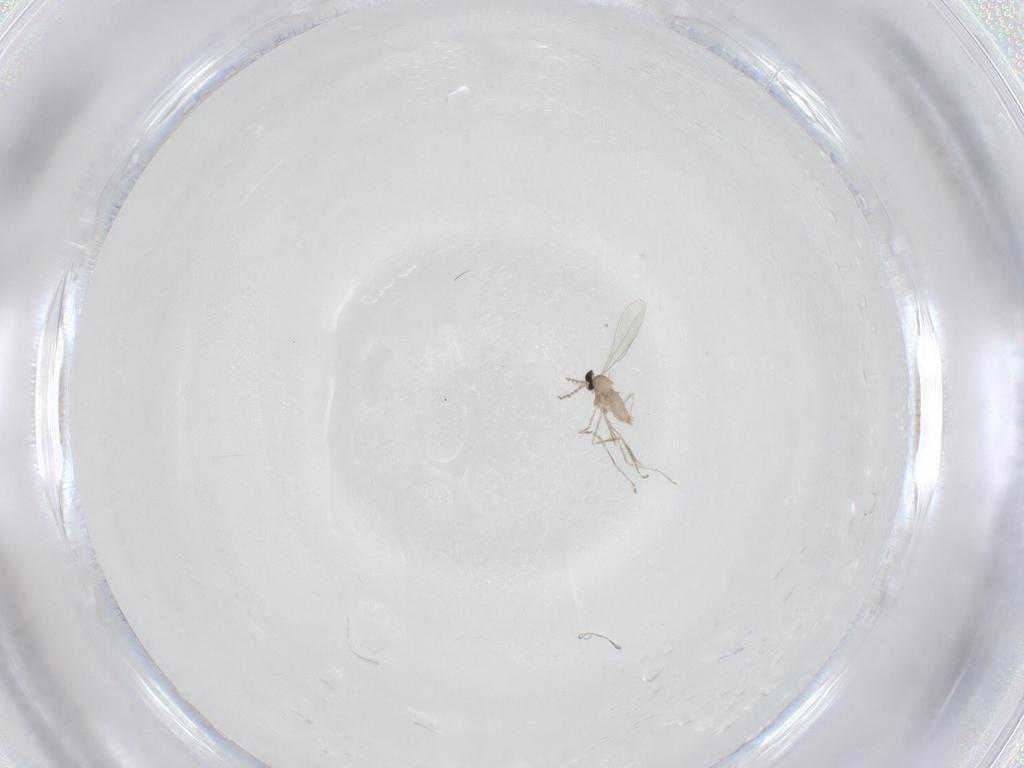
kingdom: Animalia
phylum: Arthropoda
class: Insecta
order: Diptera
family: Cecidomyiidae
